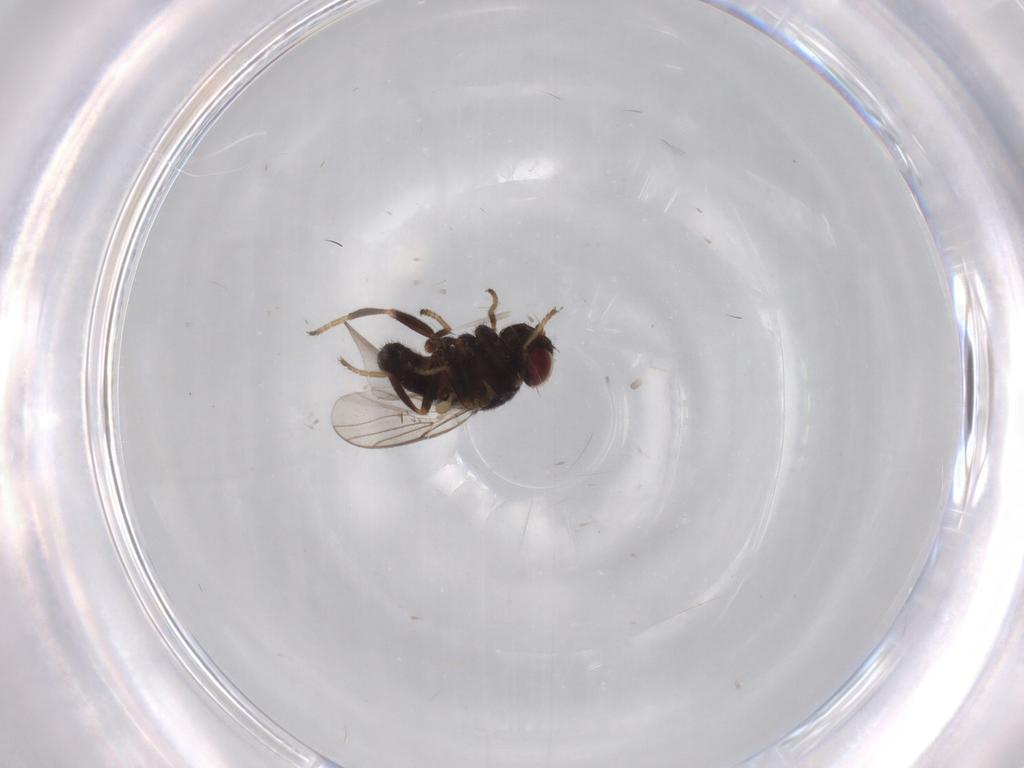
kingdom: Animalia
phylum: Arthropoda
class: Insecta
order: Diptera
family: Chloropidae
